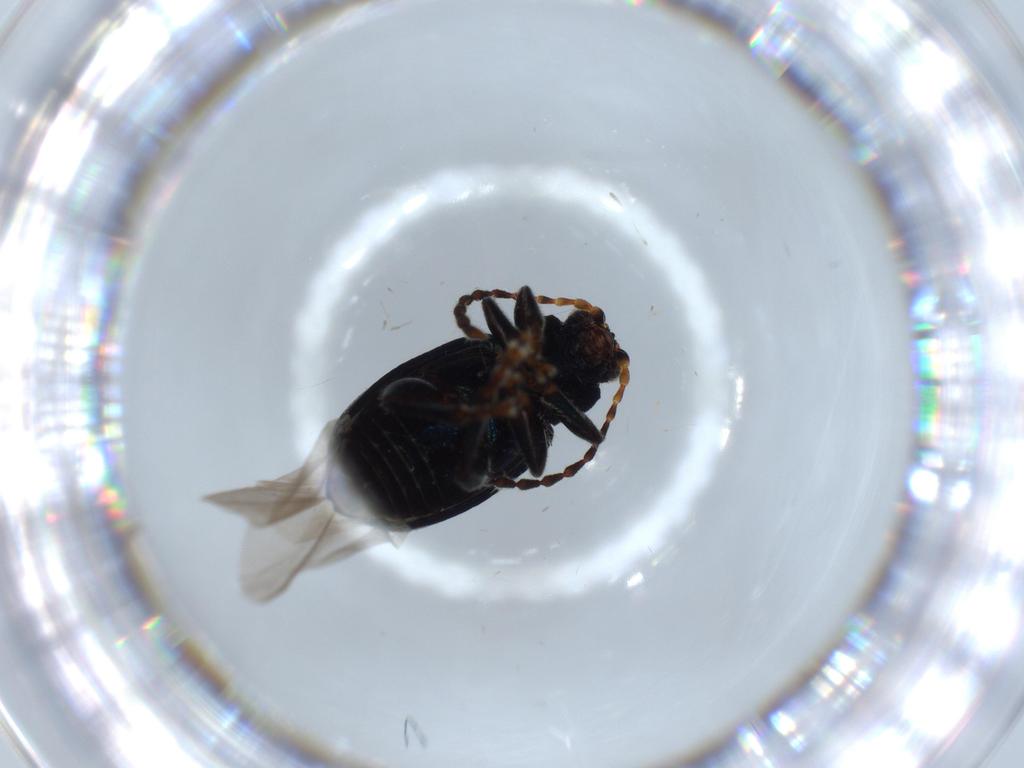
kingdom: Animalia
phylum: Arthropoda
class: Insecta
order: Coleoptera
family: Chrysomelidae
